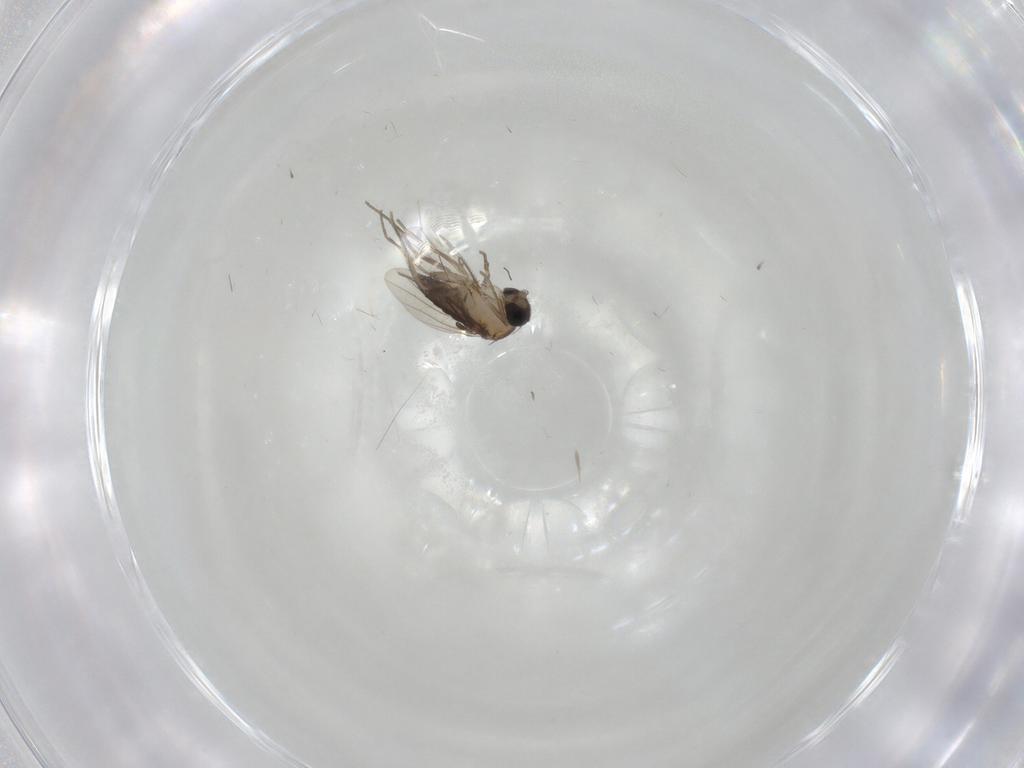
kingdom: Animalia
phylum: Arthropoda
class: Insecta
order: Diptera
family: Phoridae
